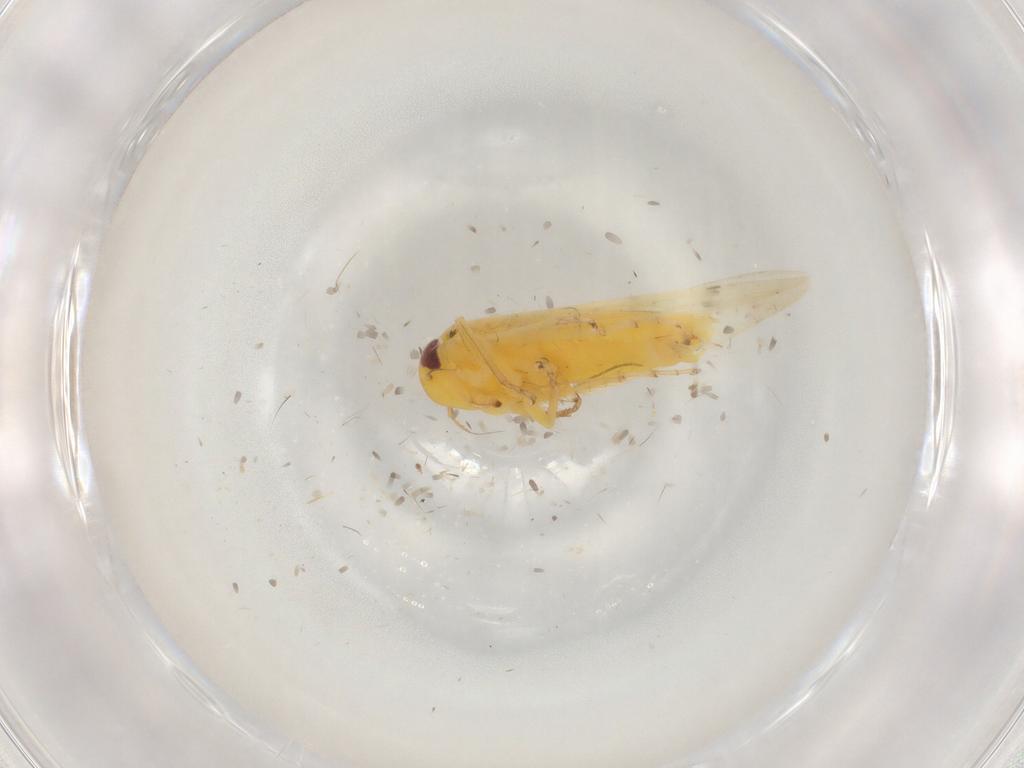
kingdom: Animalia
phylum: Arthropoda
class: Insecta
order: Hemiptera
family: Cicadellidae
